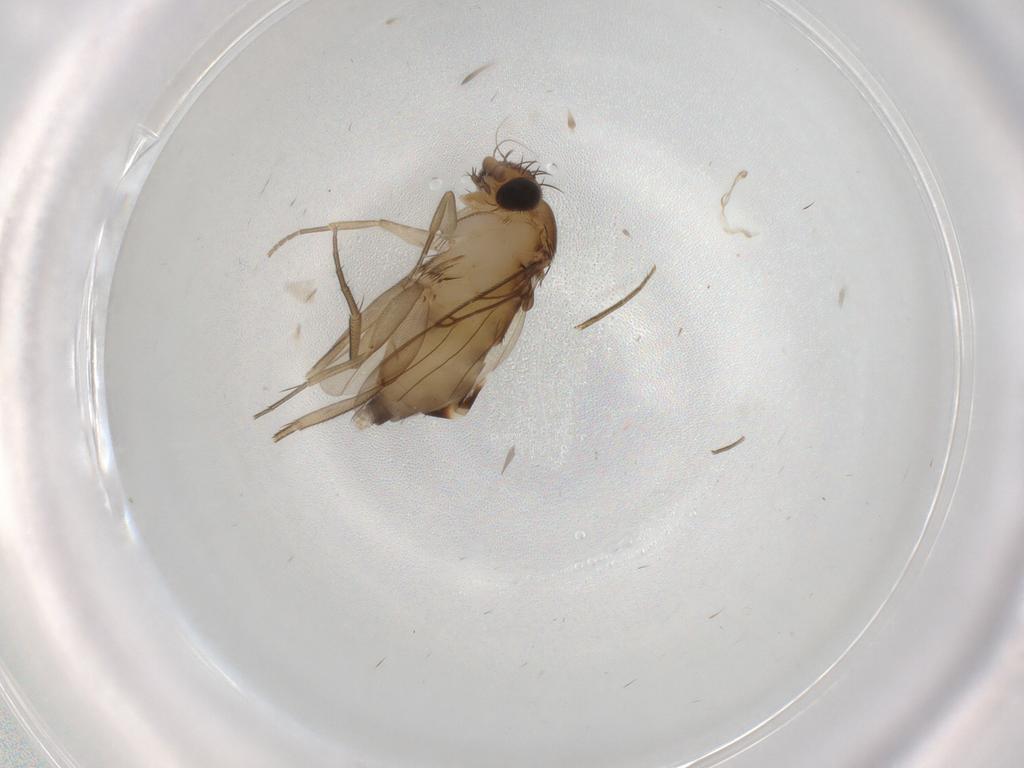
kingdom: Animalia
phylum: Arthropoda
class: Insecta
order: Diptera
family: Phoridae
